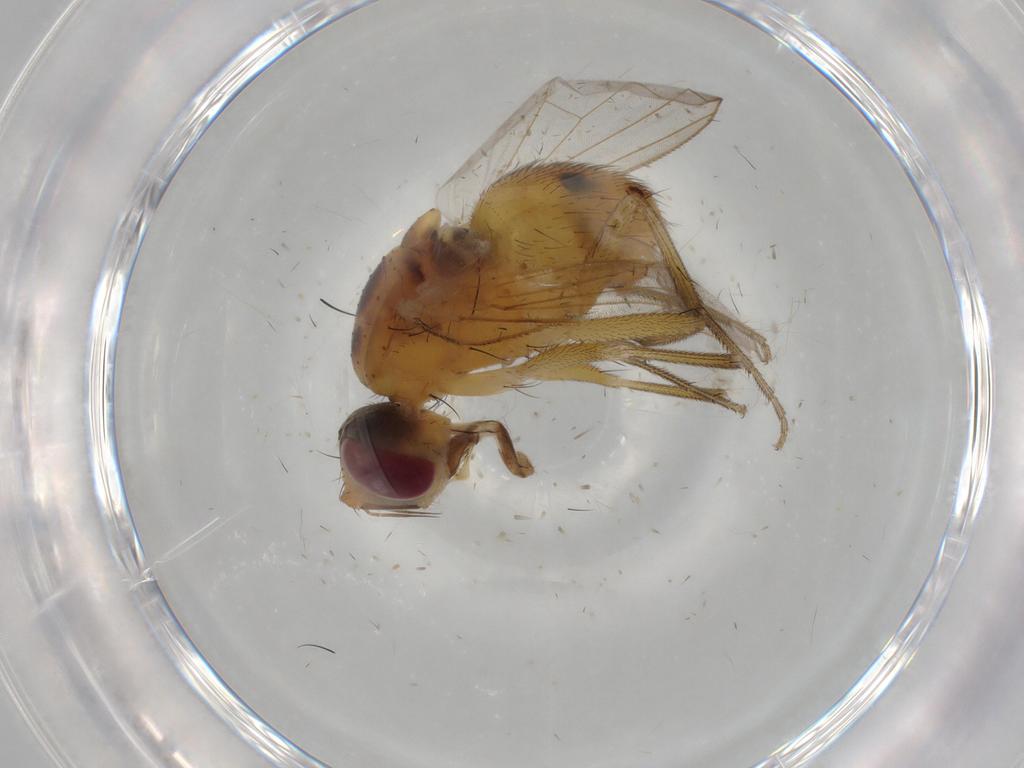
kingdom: Animalia
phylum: Arthropoda
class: Insecta
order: Diptera
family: Muscidae
